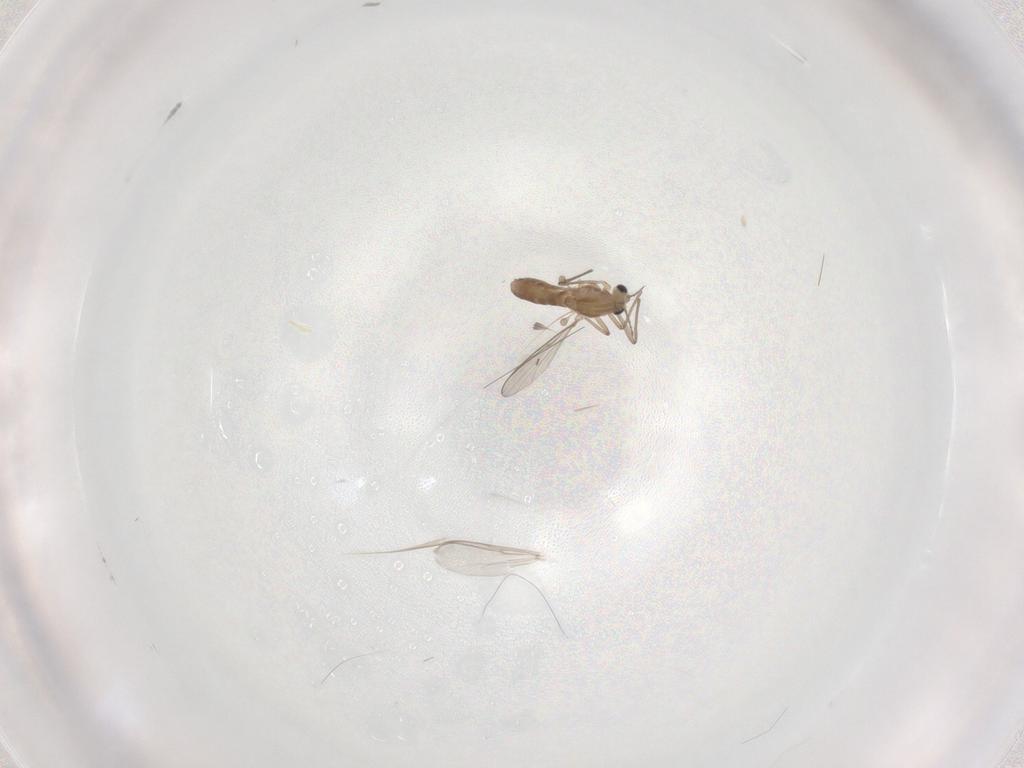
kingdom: Animalia
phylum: Arthropoda
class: Insecta
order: Diptera
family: Chironomidae
